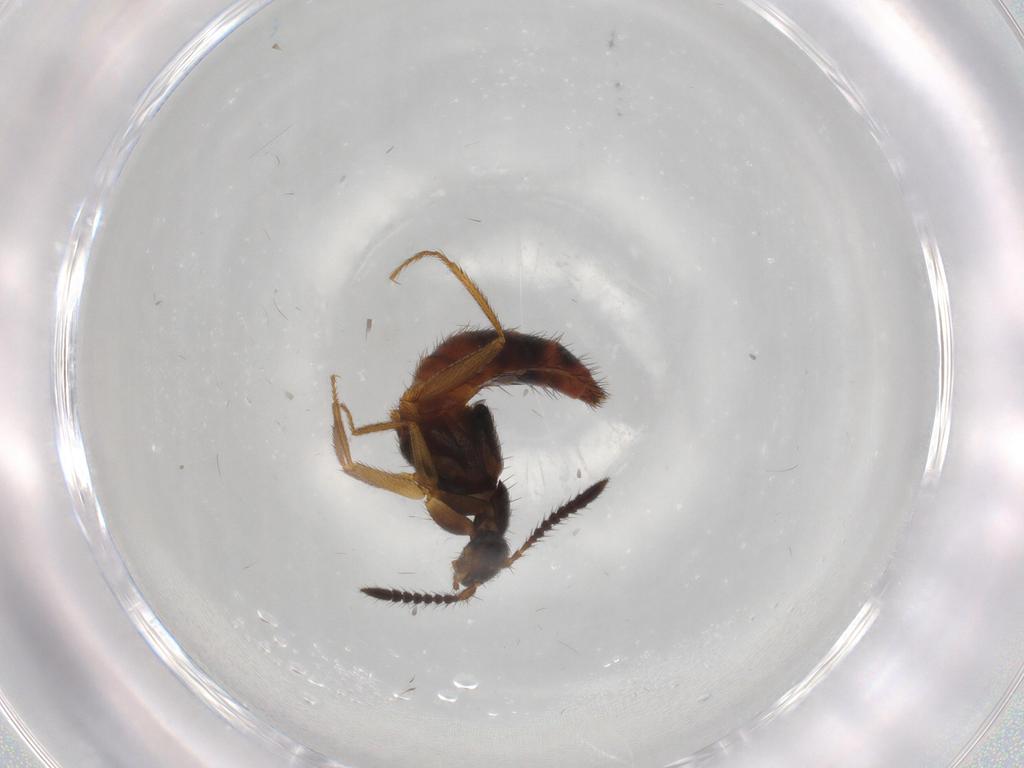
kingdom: Animalia
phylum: Arthropoda
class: Insecta
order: Coleoptera
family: Staphylinidae
